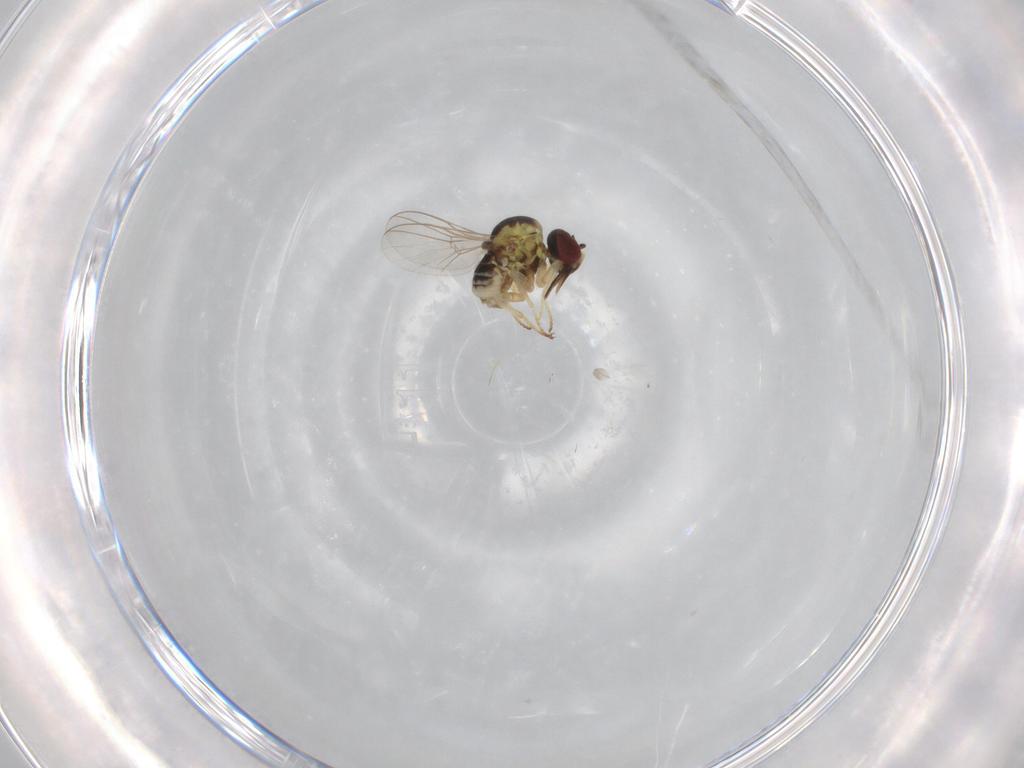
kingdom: Animalia
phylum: Arthropoda
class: Insecta
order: Diptera
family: Bombyliidae
